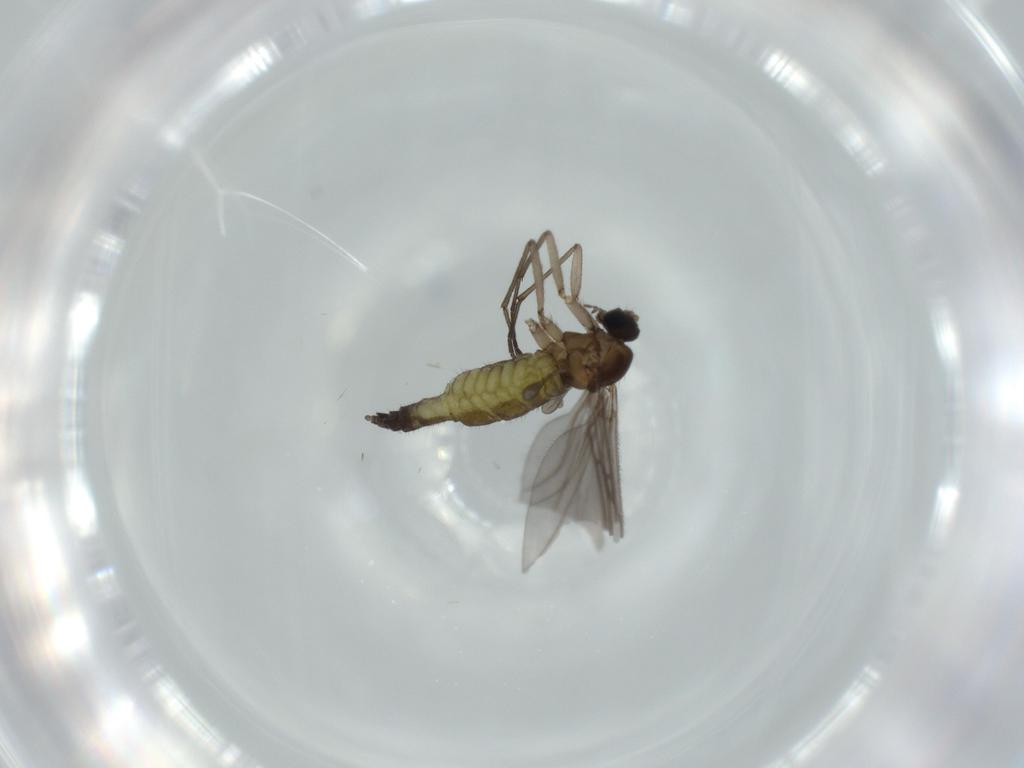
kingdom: Animalia
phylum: Arthropoda
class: Insecta
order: Diptera
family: Sciaridae
